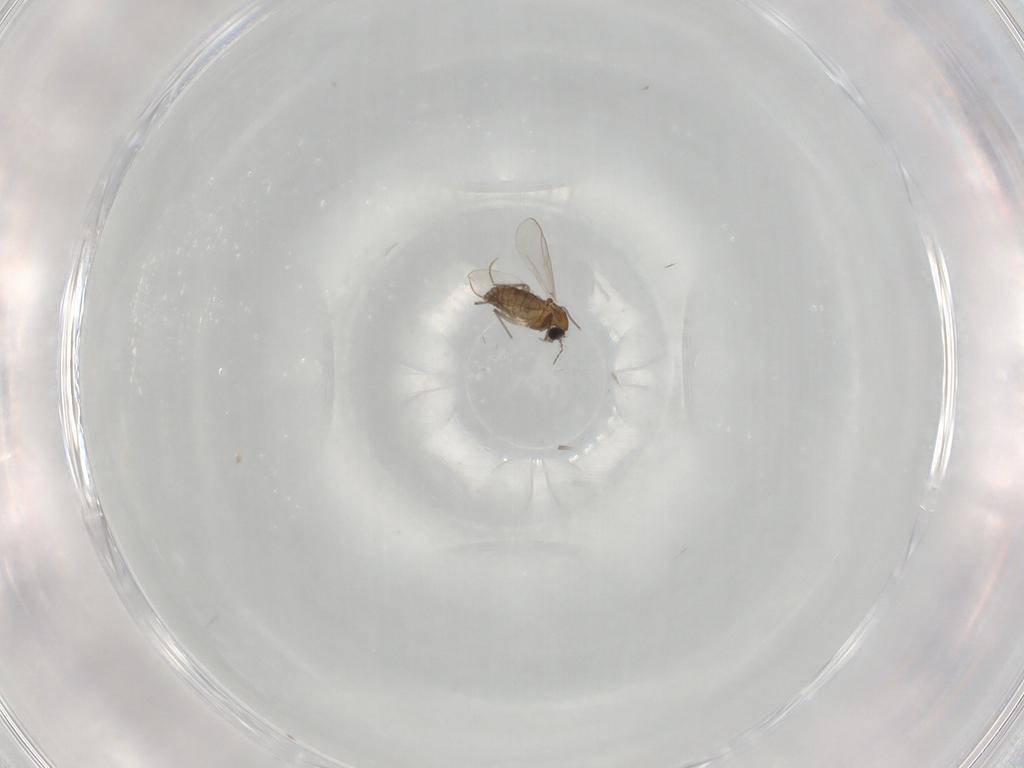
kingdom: Animalia
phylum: Arthropoda
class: Insecta
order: Diptera
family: Chironomidae
